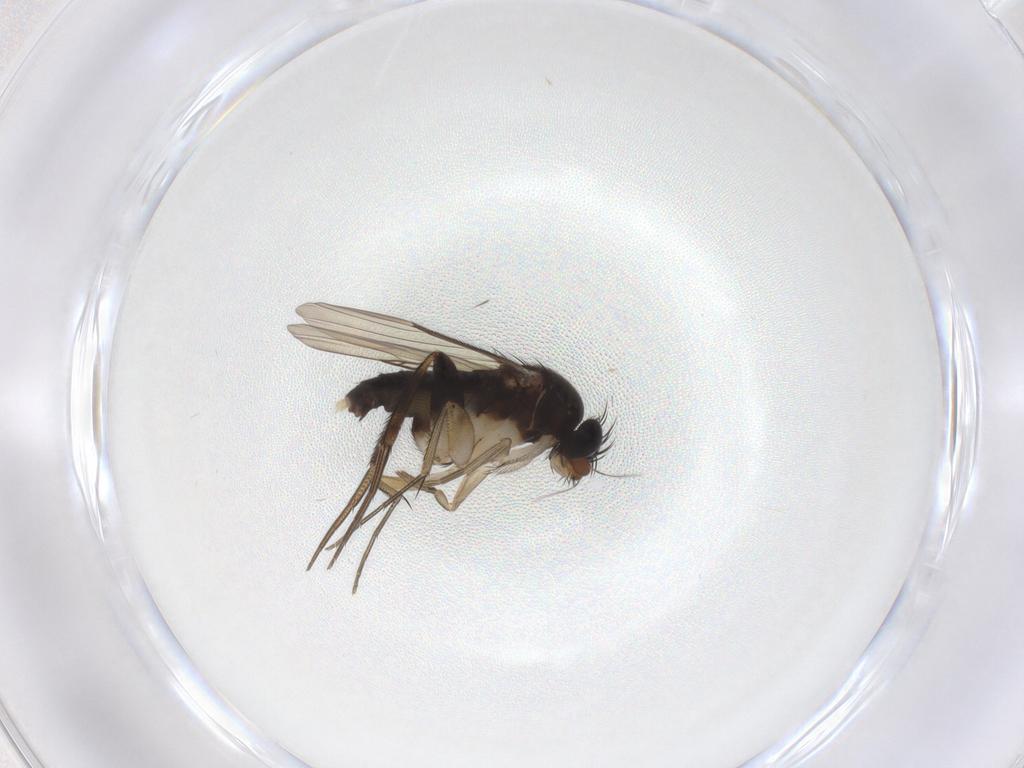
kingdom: Animalia
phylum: Arthropoda
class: Insecta
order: Diptera
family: Phoridae
